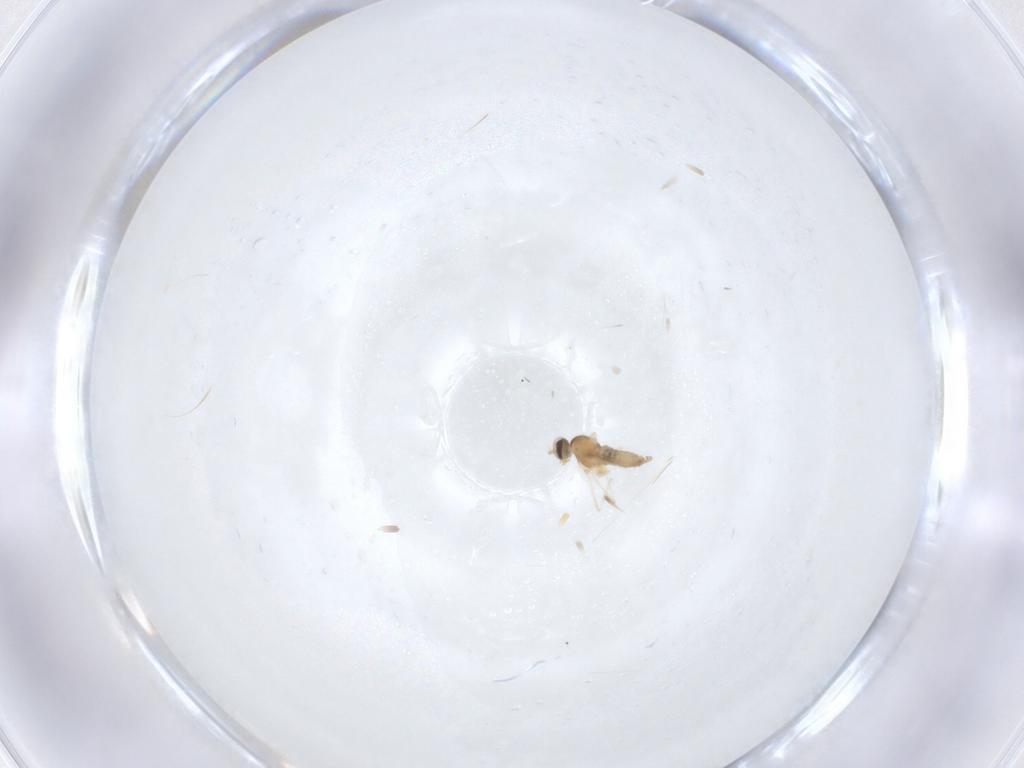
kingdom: Animalia
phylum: Arthropoda
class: Insecta
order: Diptera
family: Cecidomyiidae
